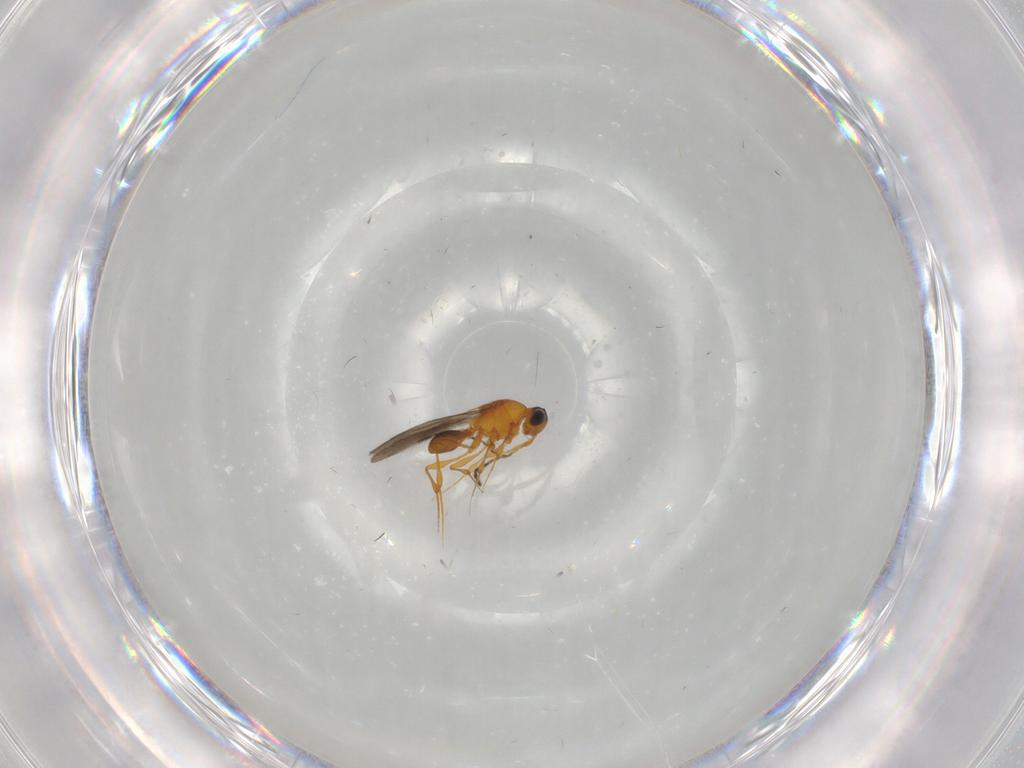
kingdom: Animalia
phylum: Arthropoda
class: Insecta
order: Hymenoptera
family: Platygastridae
